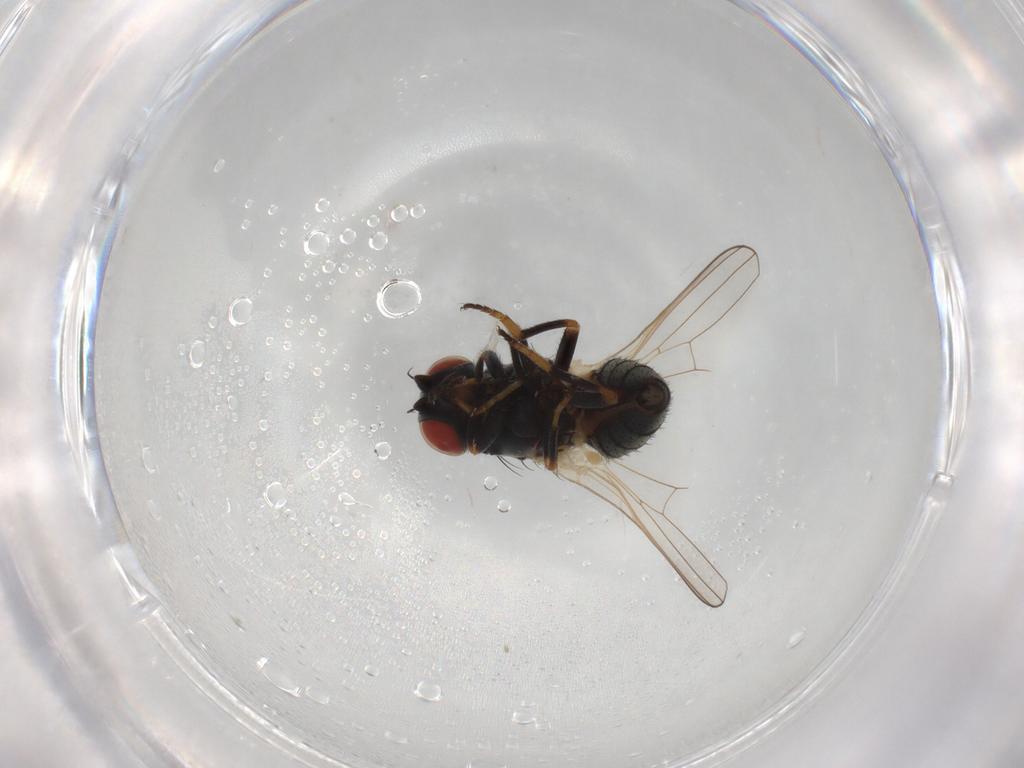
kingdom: Animalia
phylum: Arthropoda
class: Insecta
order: Diptera
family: Chamaemyiidae
